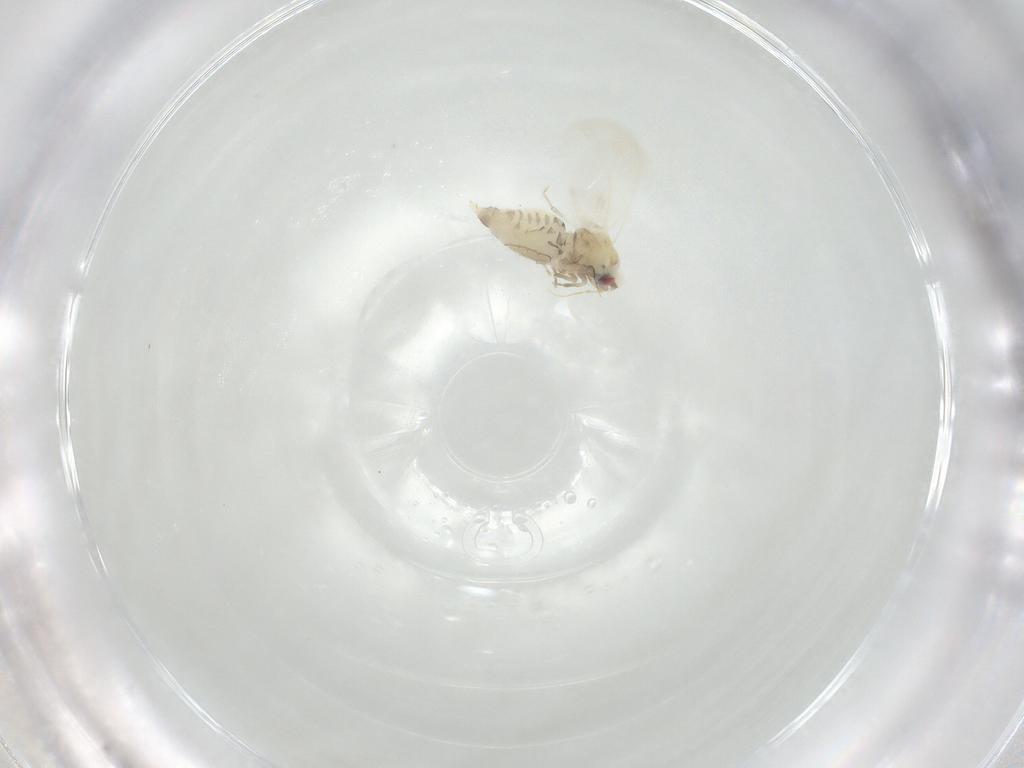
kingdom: Animalia
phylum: Arthropoda
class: Insecta
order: Hemiptera
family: Aleyrodidae
